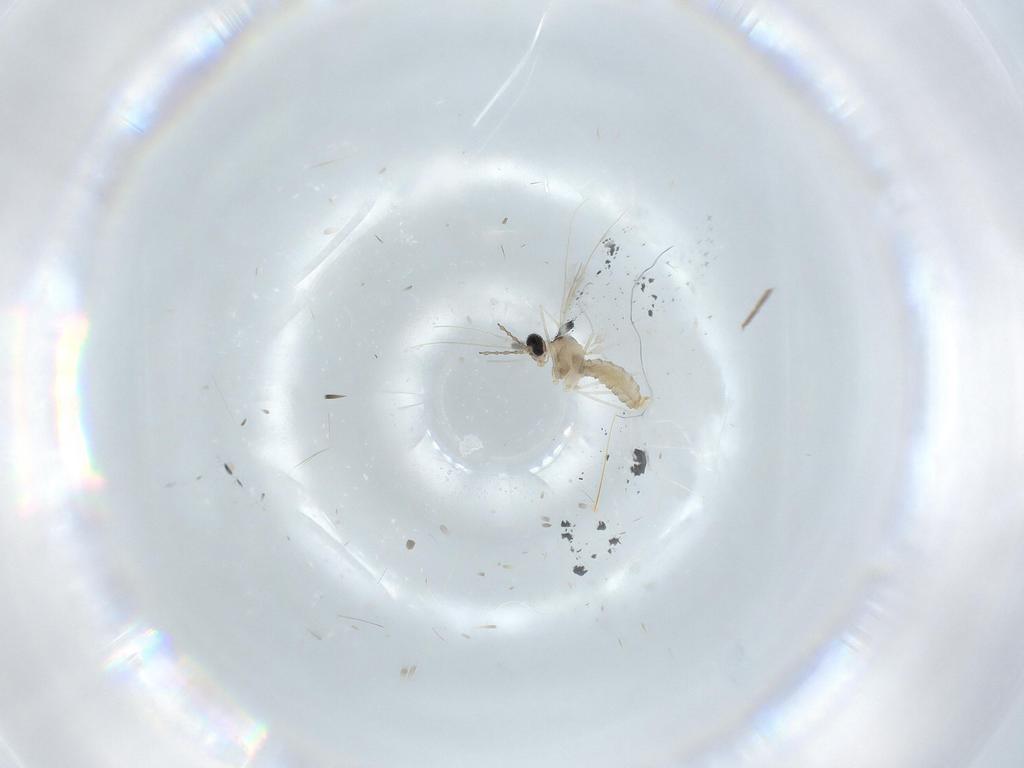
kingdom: Animalia
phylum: Arthropoda
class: Insecta
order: Diptera
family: Cecidomyiidae
